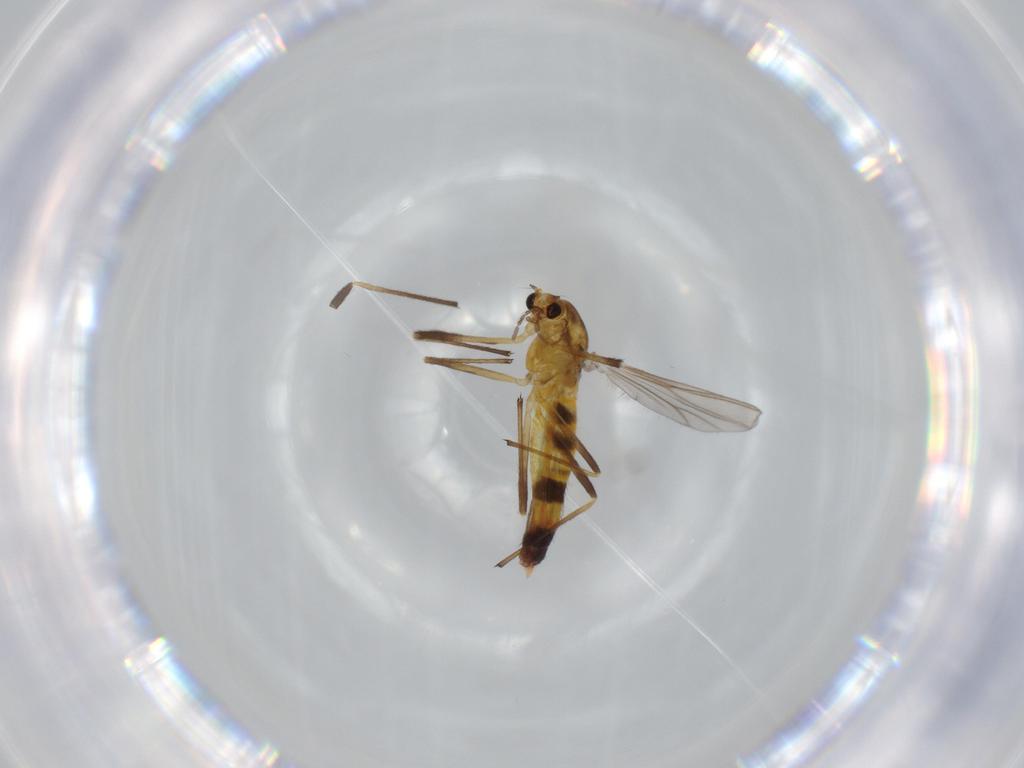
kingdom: Animalia
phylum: Arthropoda
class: Insecta
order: Diptera
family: Chironomidae
